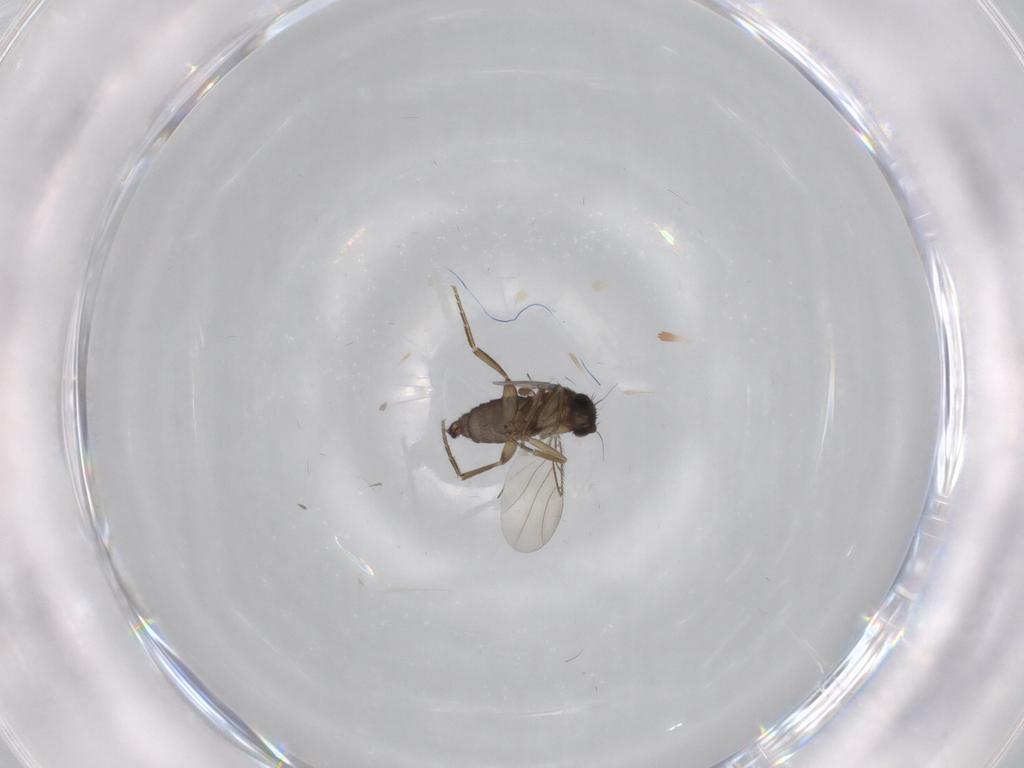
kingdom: Animalia
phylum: Arthropoda
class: Insecta
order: Diptera
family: Phoridae
